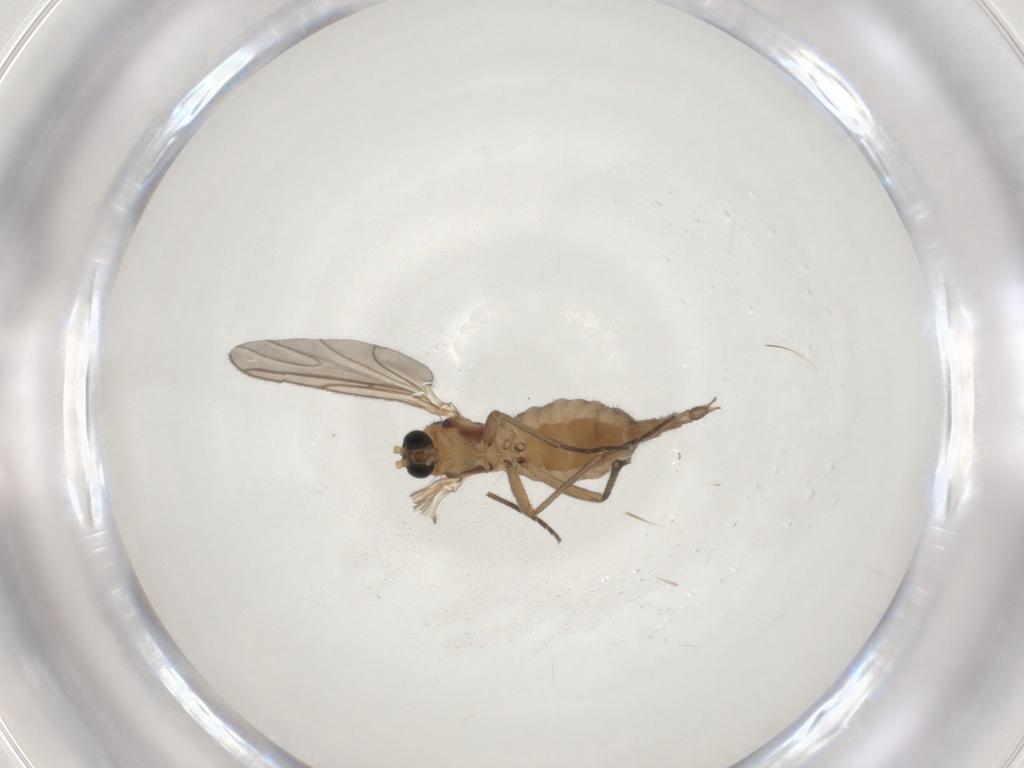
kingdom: Animalia
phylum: Arthropoda
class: Insecta
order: Diptera
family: Sciaridae
